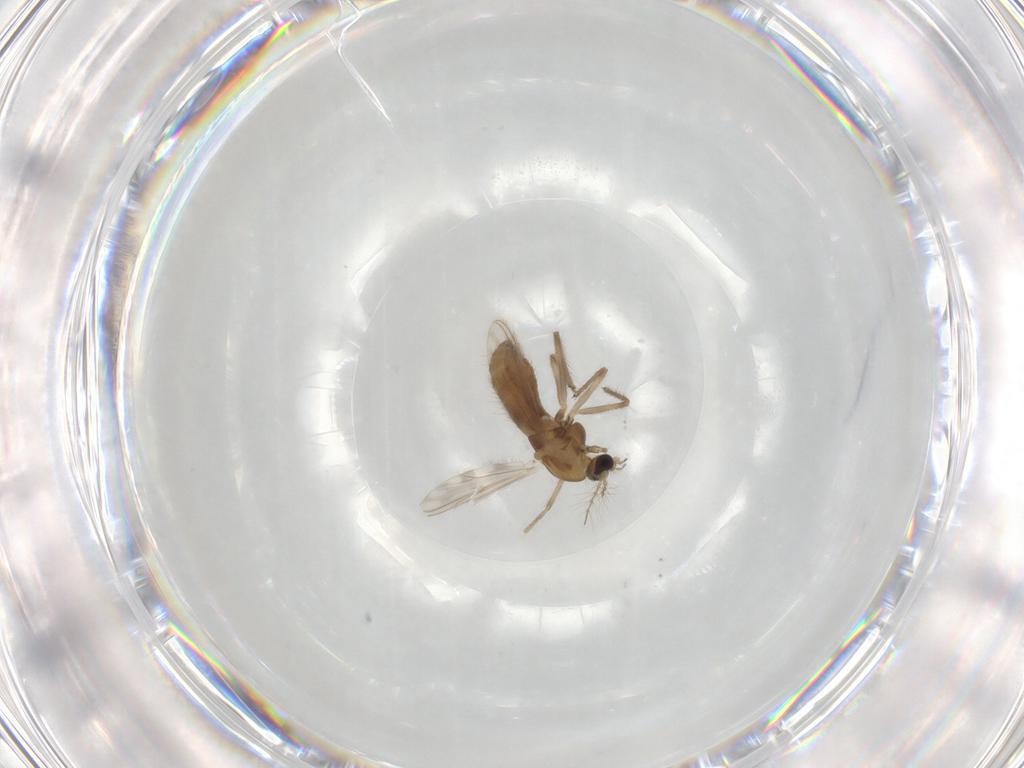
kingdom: Animalia
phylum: Arthropoda
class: Insecta
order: Diptera
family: Chironomidae
